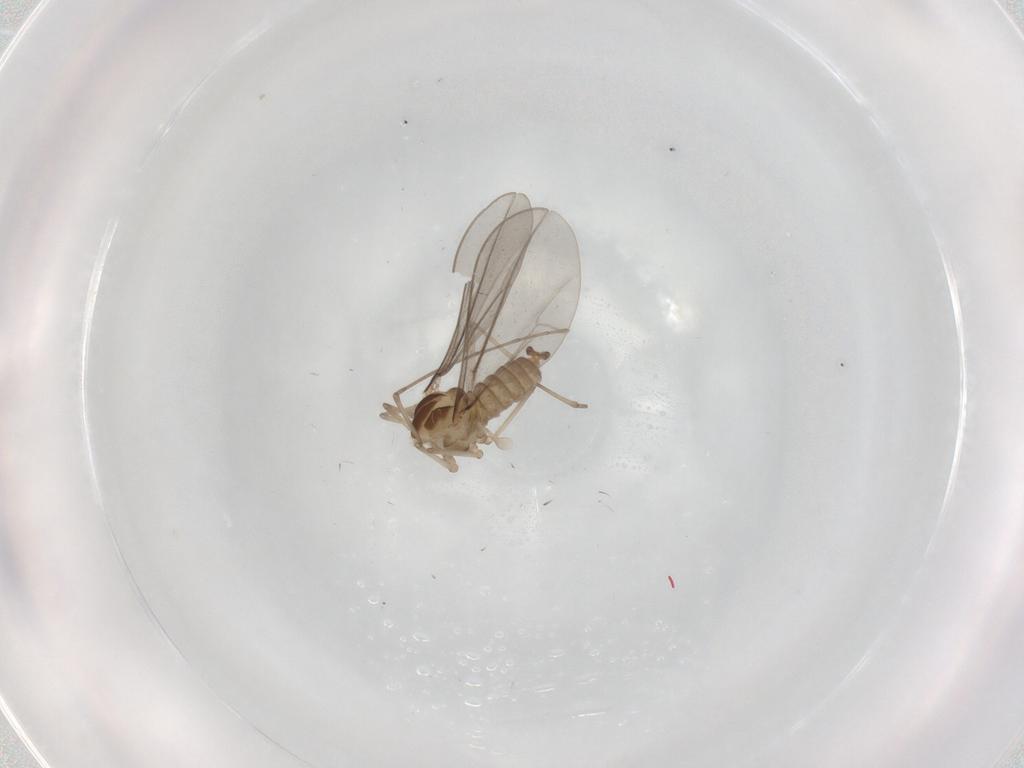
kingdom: Animalia
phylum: Arthropoda
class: Insecta
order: Diptera
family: Cecidomyiidae
